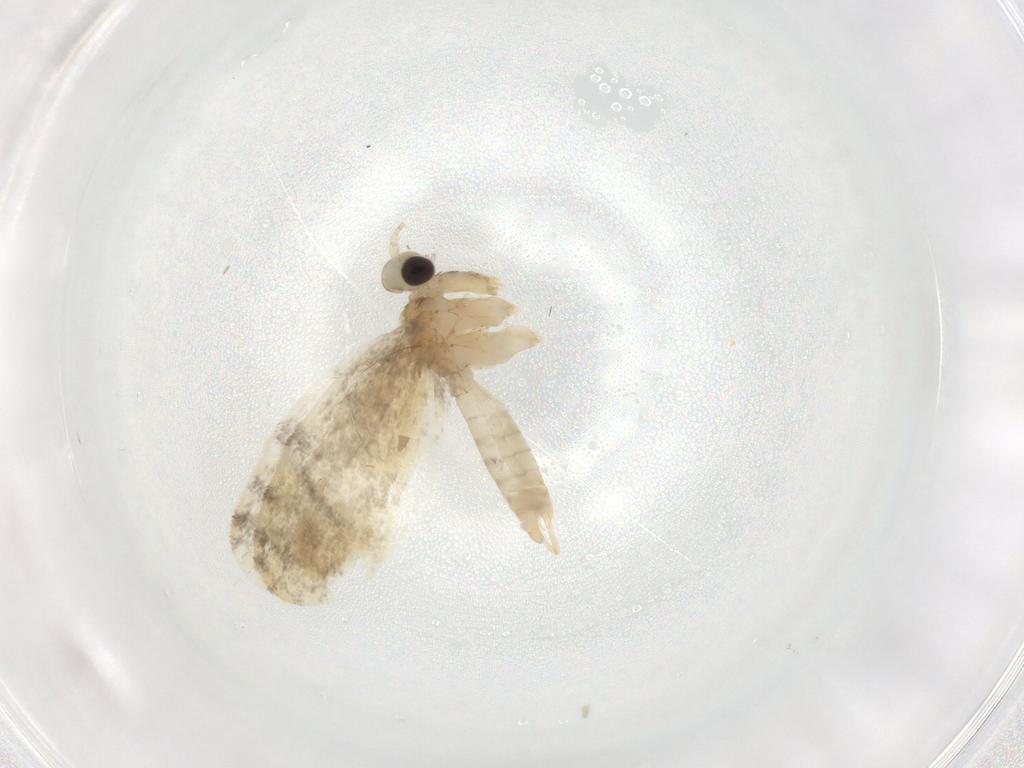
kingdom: Animalia
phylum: Arthropoda
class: Insecta
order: Lepidoptera
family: Psychidae
